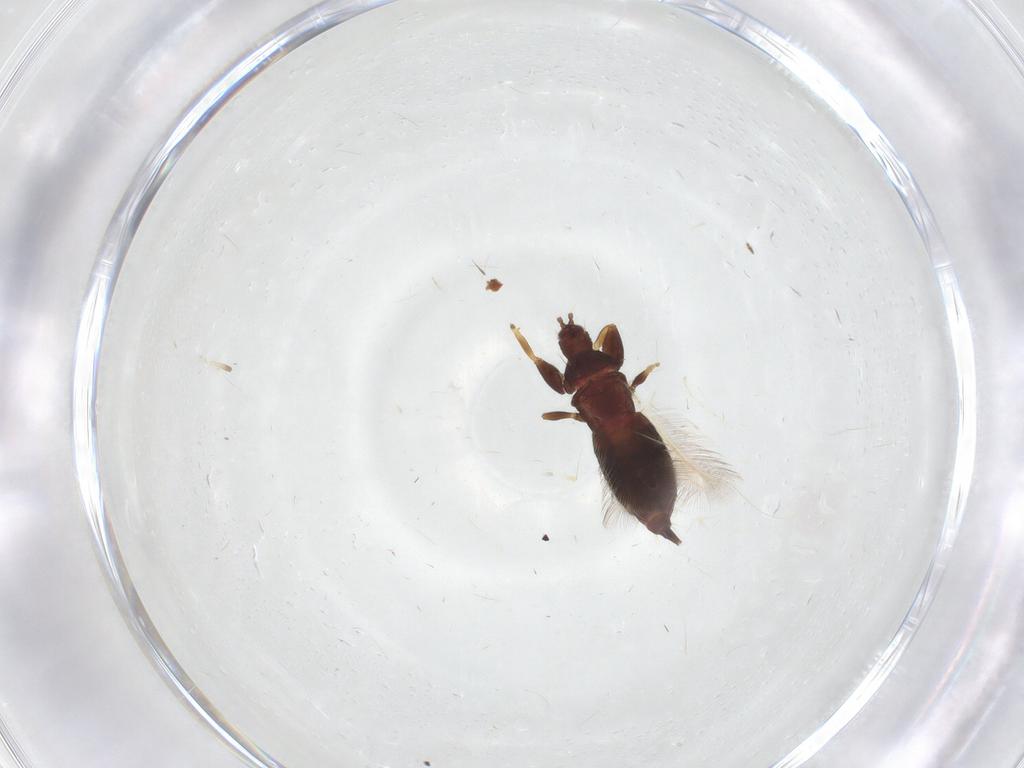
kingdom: Animalia
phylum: Arthropoda
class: Insecta
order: Thysanoptera
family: Phlaeothripidae
